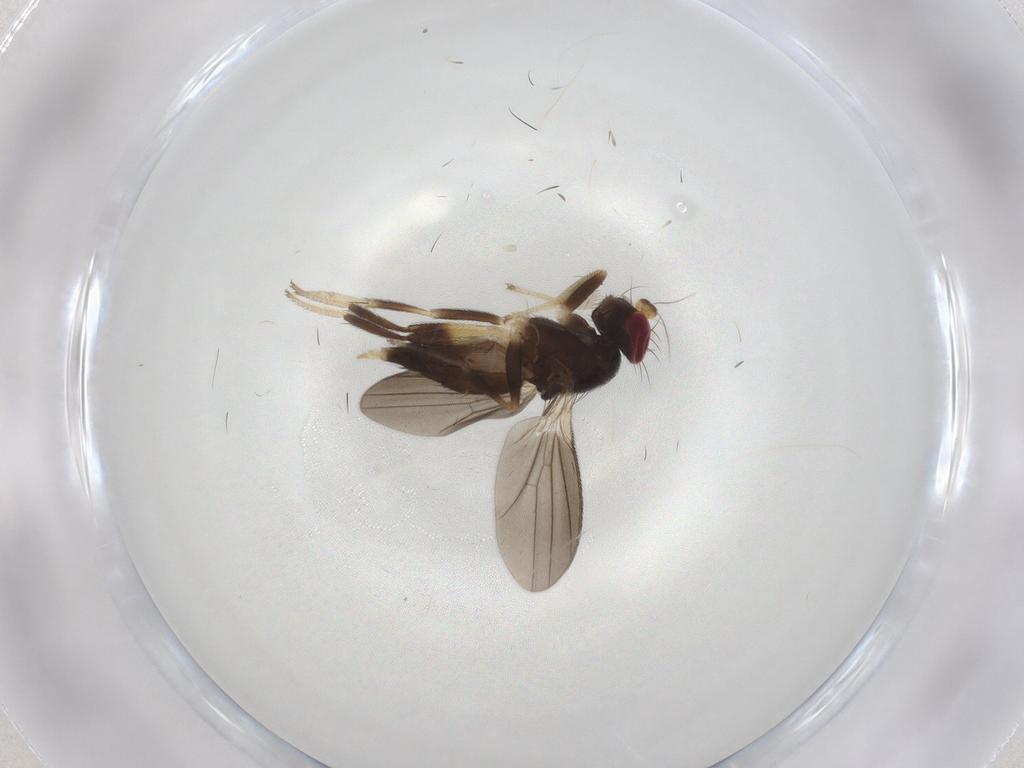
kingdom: Animalia
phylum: Arthropoda
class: Insecta
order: Diptera
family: Clusiidae
